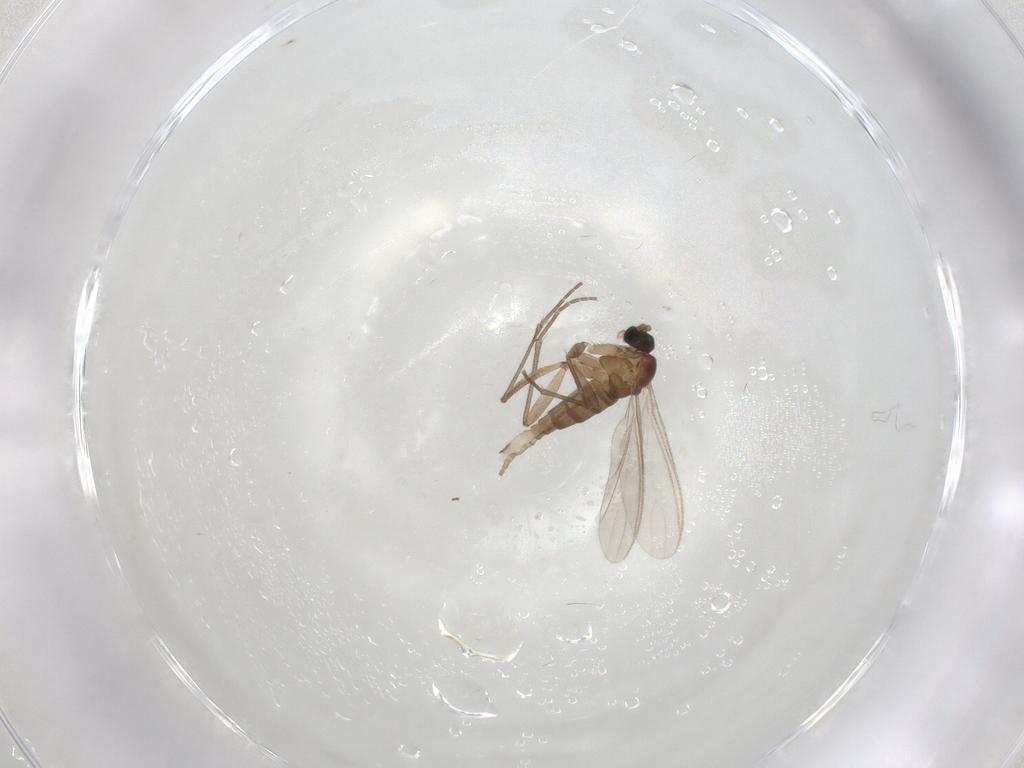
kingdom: Animalia
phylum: Arthropoda
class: Insecta
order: Diptera
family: Sciaridae
